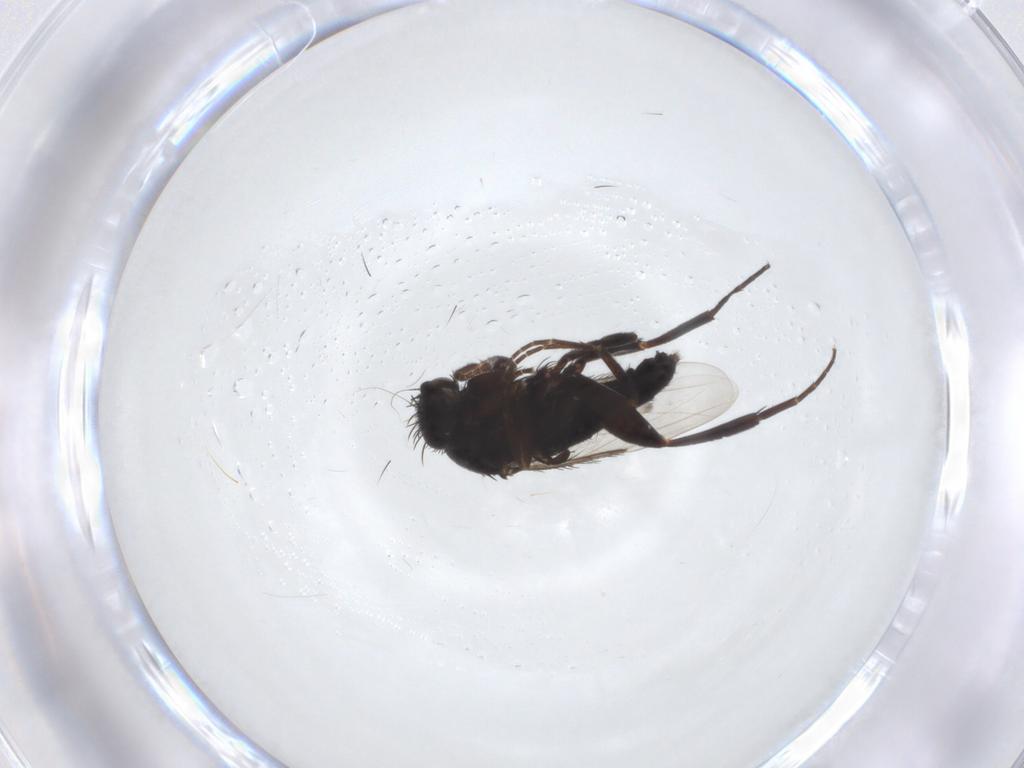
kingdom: Animalia
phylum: Arthropoda
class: Insecta
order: Diptera
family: Phoridae
